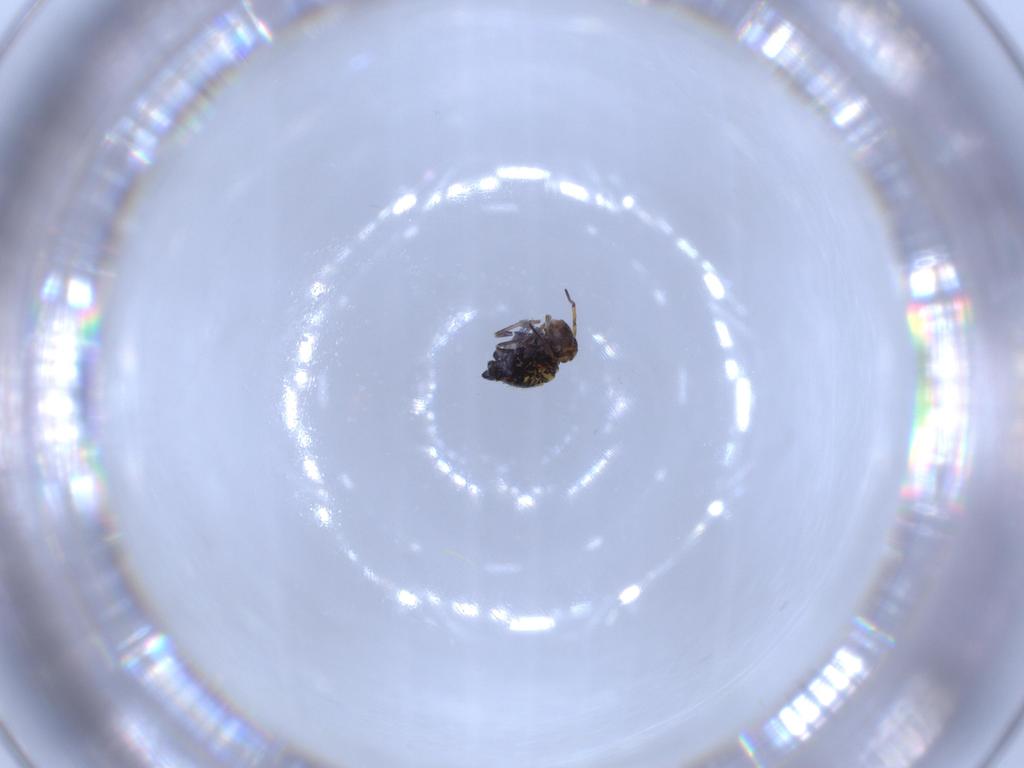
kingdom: Animalia
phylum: Arthropoda
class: Collembola
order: Symphypleona
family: Katiannidae
